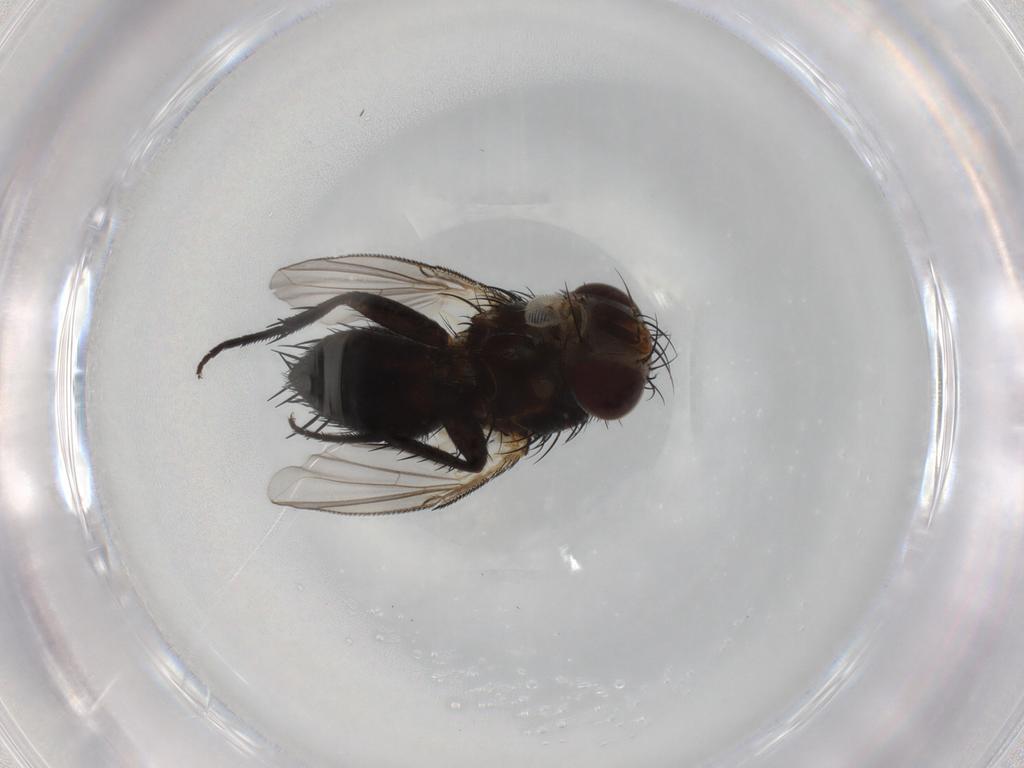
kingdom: Animalia
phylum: Arthropoda
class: Insecta
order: Diptera
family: Tachinidae
